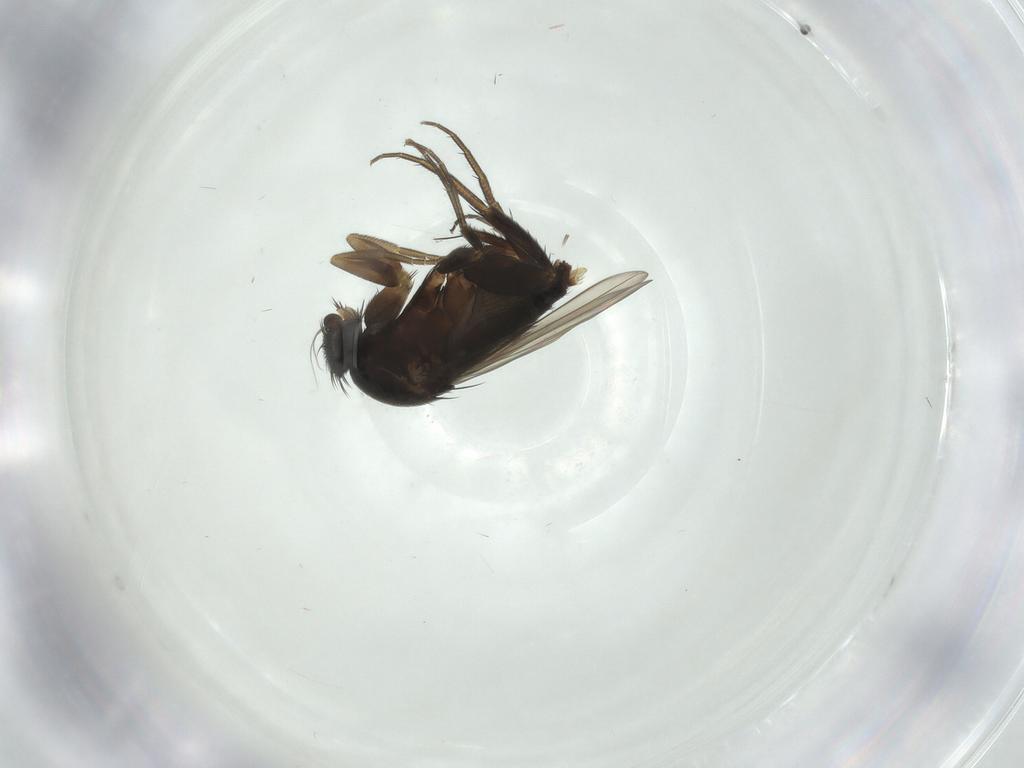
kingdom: Animalia
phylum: Arthropoda
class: Insecta
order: Diptera
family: Phoridae
